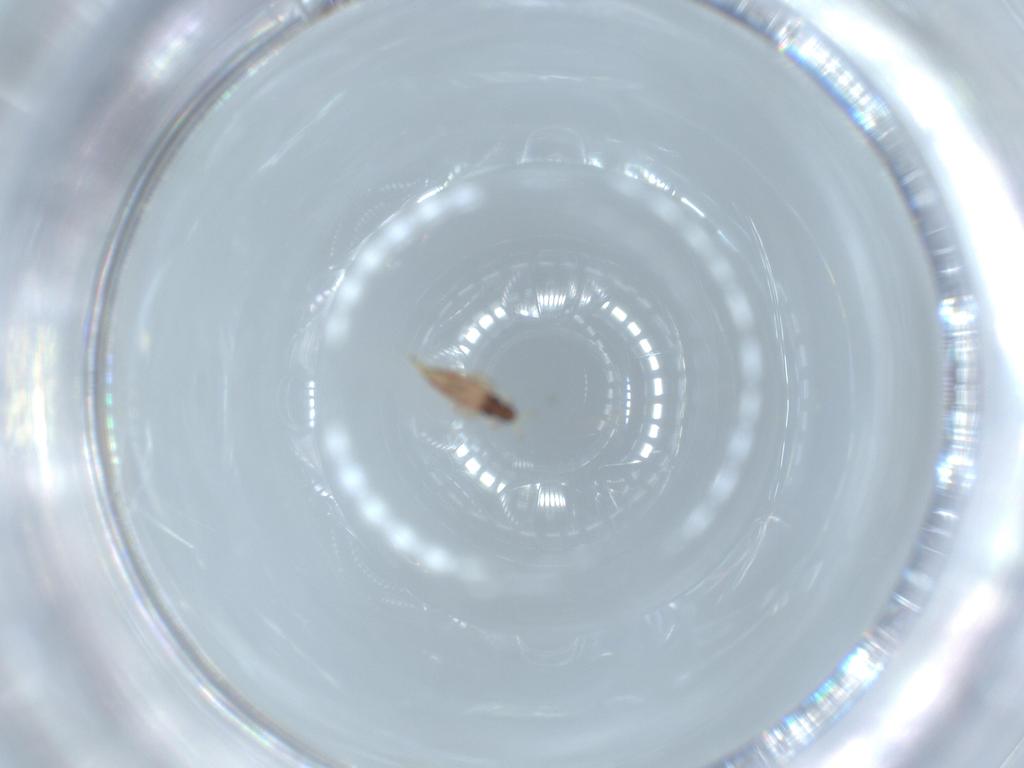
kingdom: Animalia
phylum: Arthropoda
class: Insecta
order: Thysanoptera
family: Phlaeothripidae
